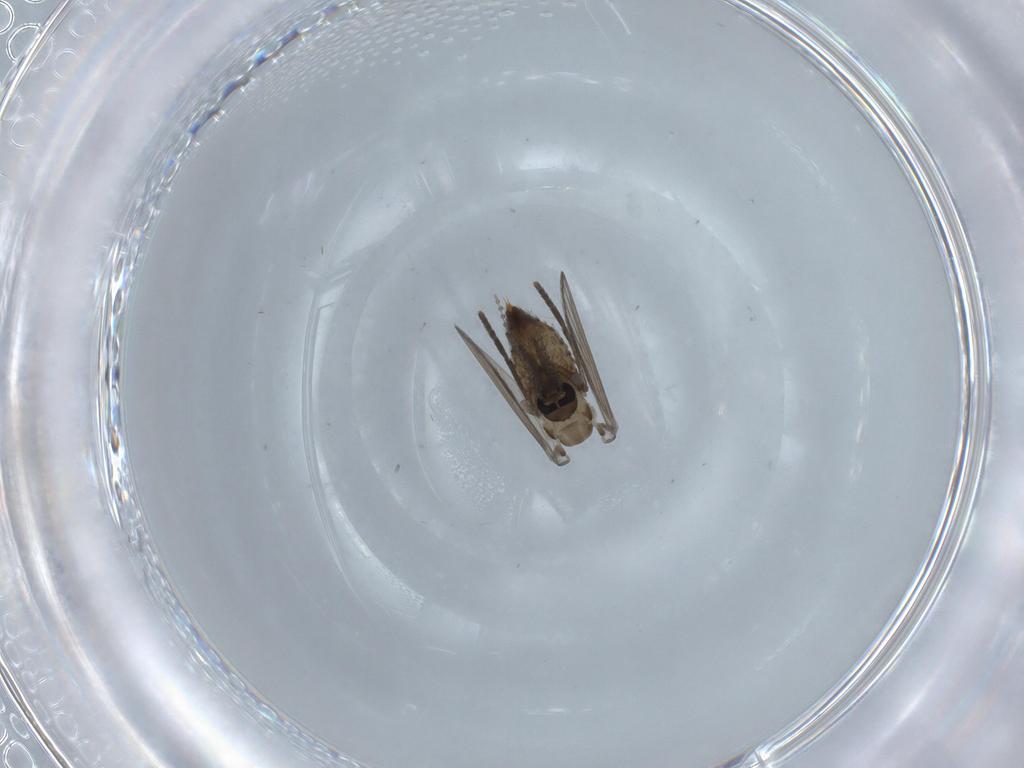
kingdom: Animalia
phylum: Arthropoda
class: Insecta
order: Diptera
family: Psychodidae
